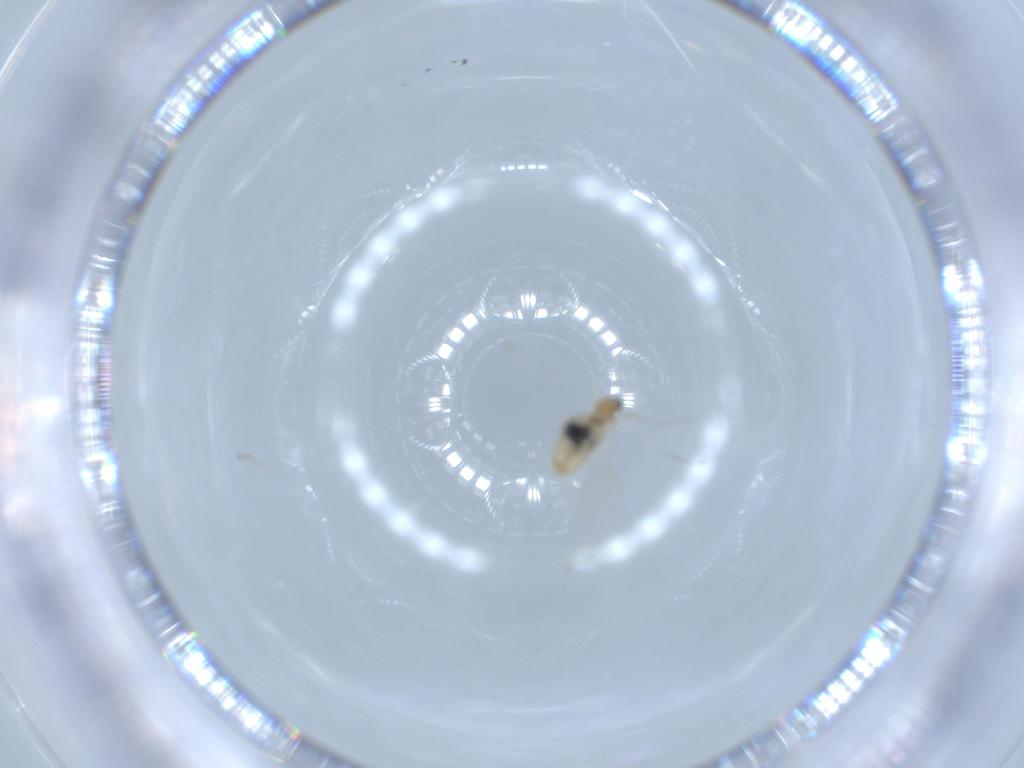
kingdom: Animalia
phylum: Arthropoda
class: Insecta
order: Diptera
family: Cecidomyiidae
